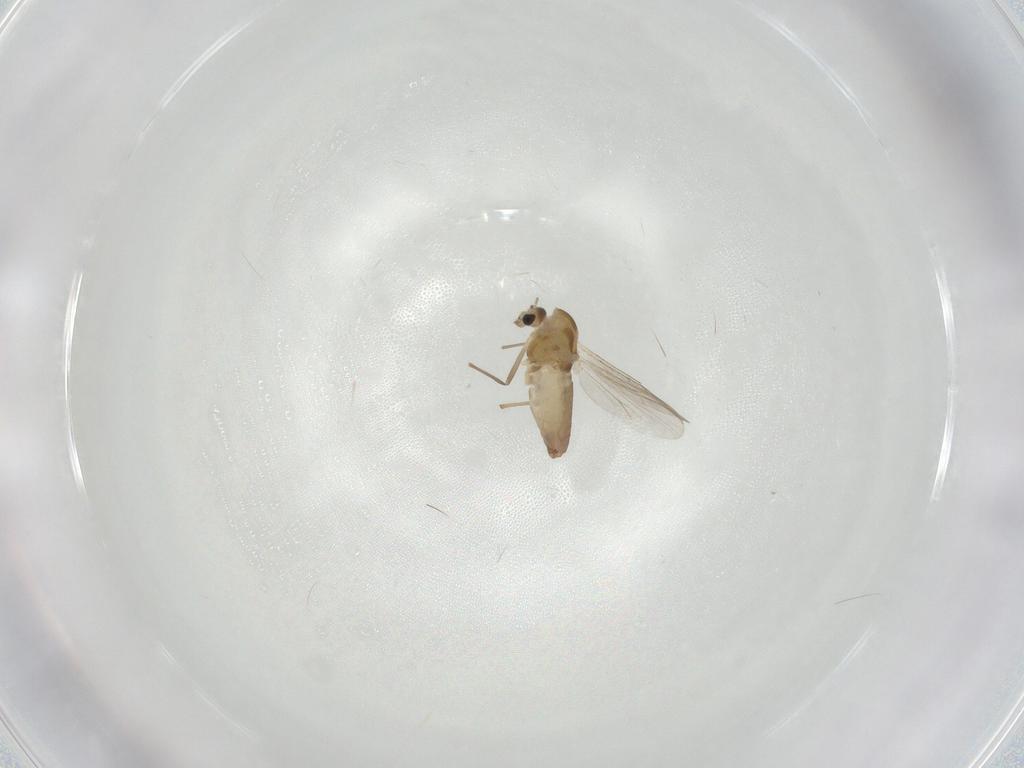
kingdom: Animalia
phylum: Arthropoda
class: Insecta
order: Diptera
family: Chironomidae
